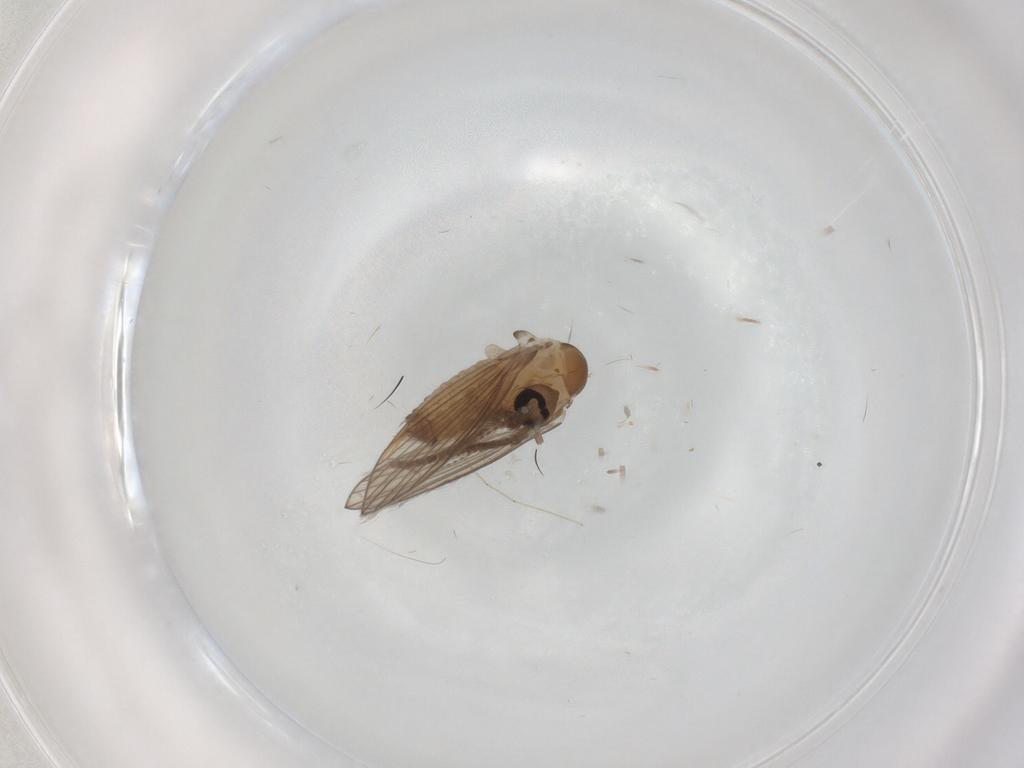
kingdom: Animalia
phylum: Arthropoda
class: Insecta
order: Diptera
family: Psychodidae
